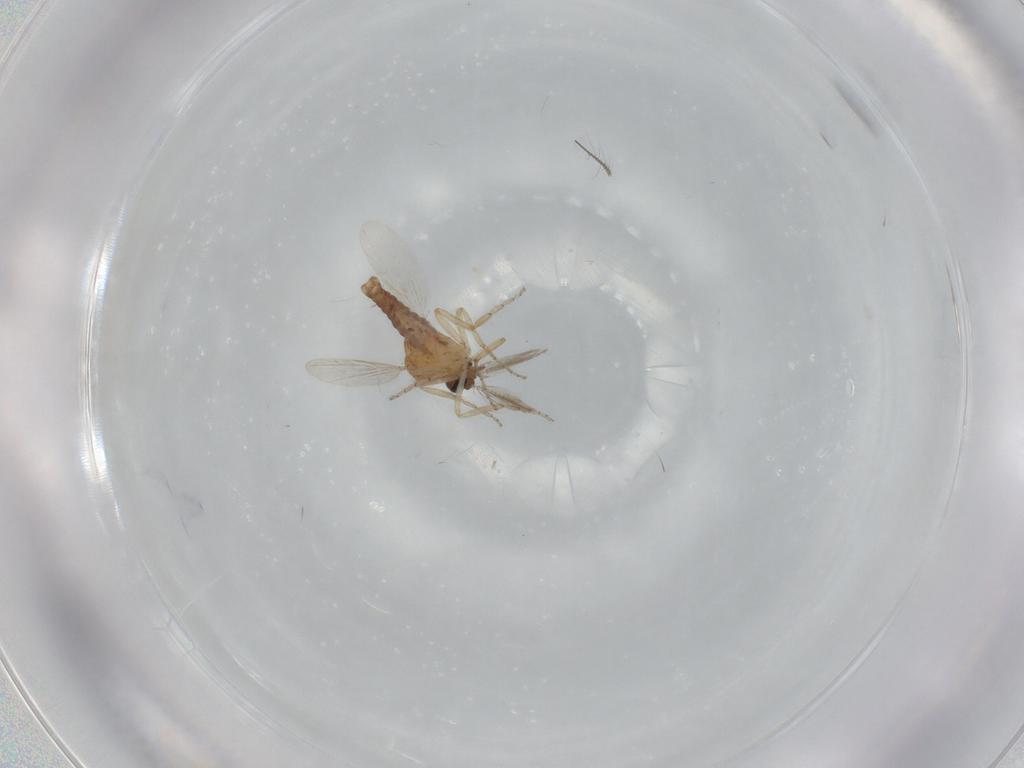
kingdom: Animalia
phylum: Arthropoda
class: Insecta
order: Diptera
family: Ceratopogonidae
